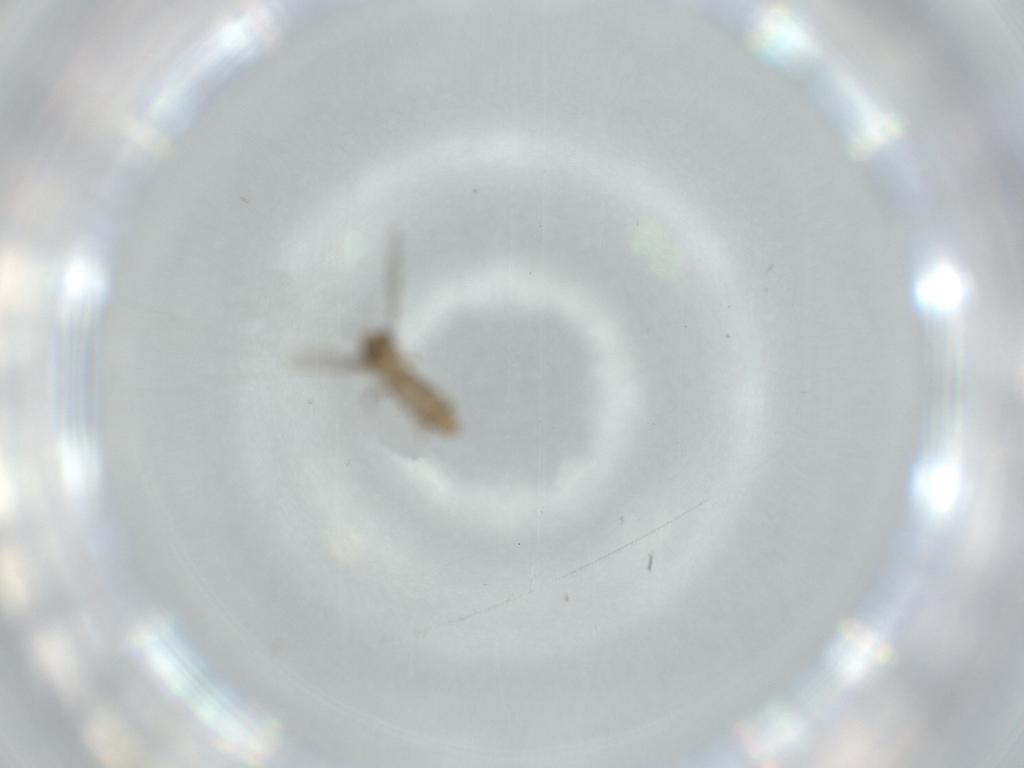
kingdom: Animalia
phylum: Arthropoda
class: Insecta
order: Diptera
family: Chironomidae
